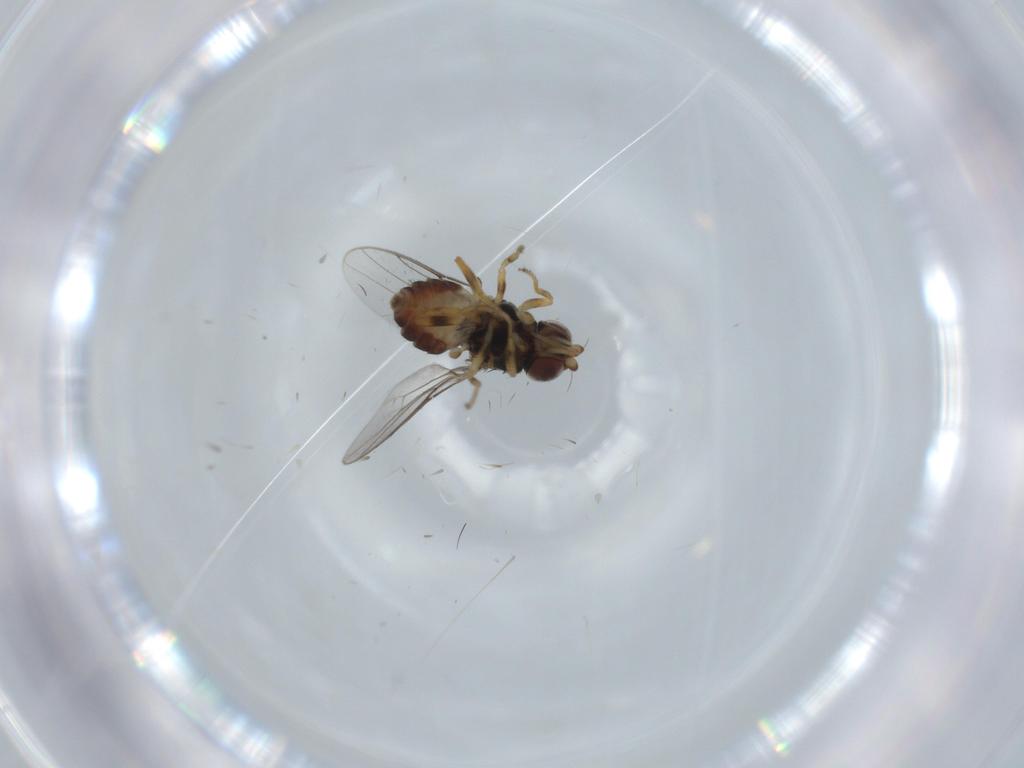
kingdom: Animalia
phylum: Arthropoda
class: Insecta
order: Diptera
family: Chloropidae
